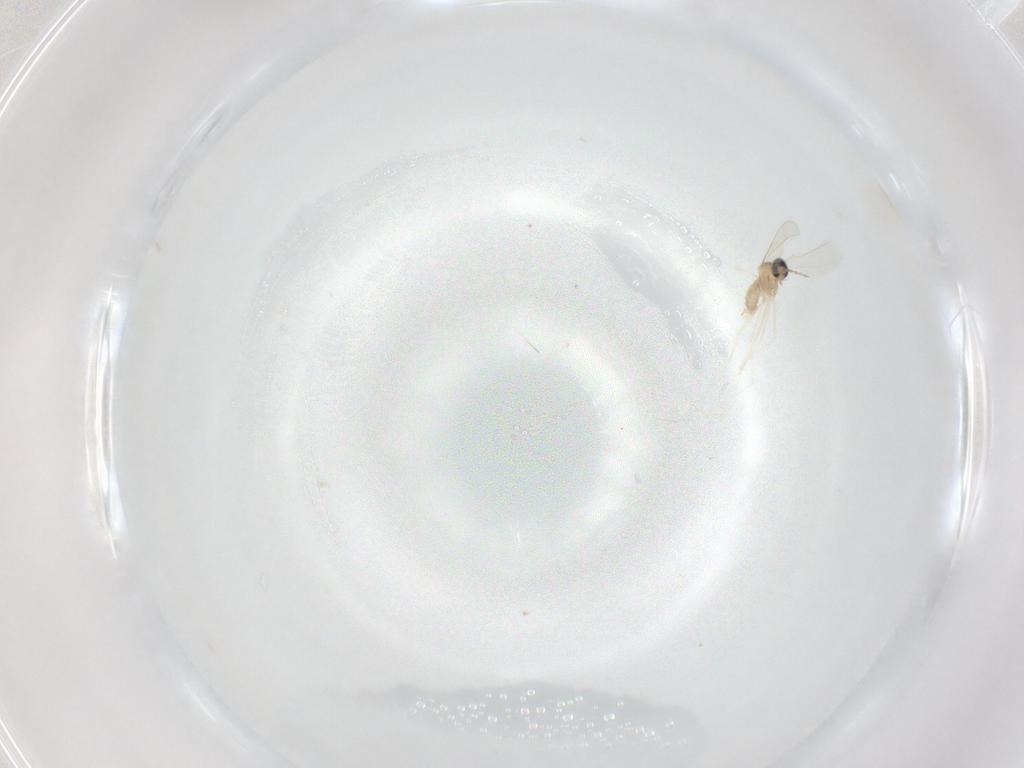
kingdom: Animalia
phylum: Arthropoda
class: Insecta
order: Diptera
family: Cecidomyiidae
